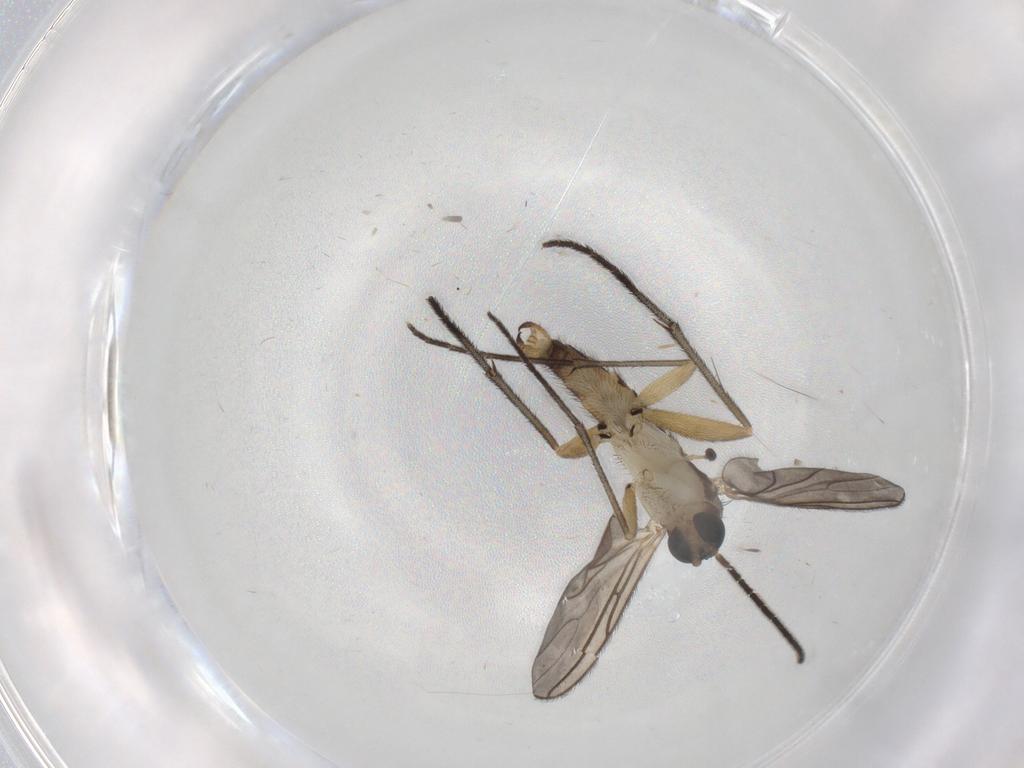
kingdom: Animalia
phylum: Arthropoda
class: Insecta
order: Diptera
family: Sciaridae
